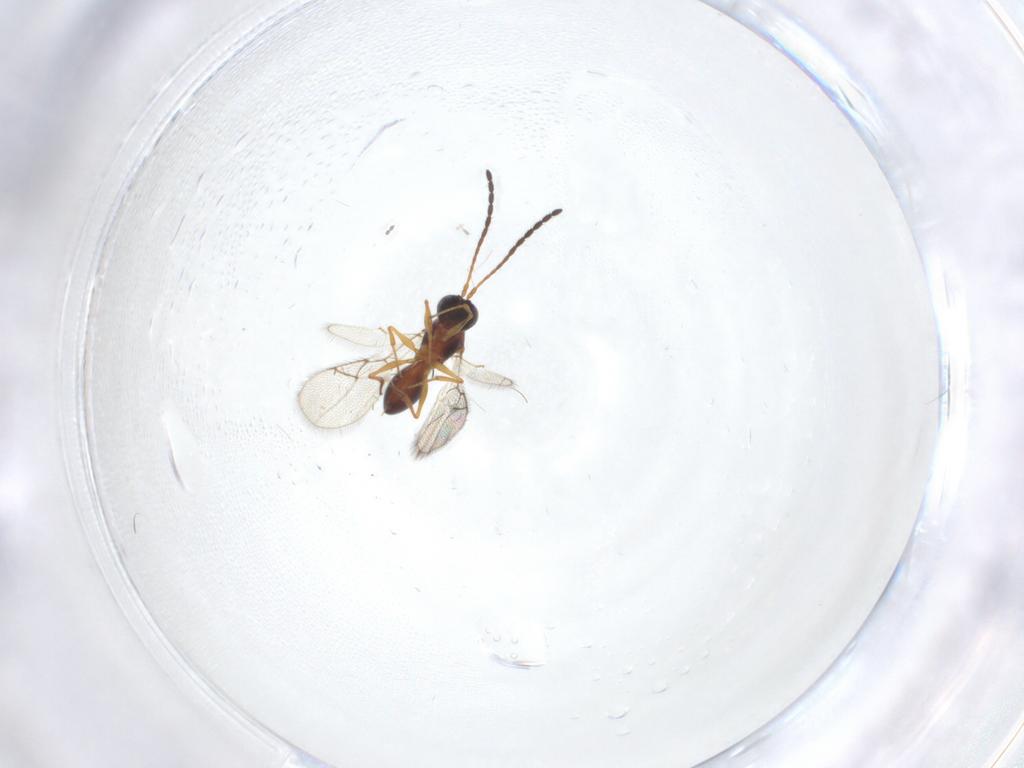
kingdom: Animalia
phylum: Arthropoda
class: Insecta
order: Hymenoptera
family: Figitidae
